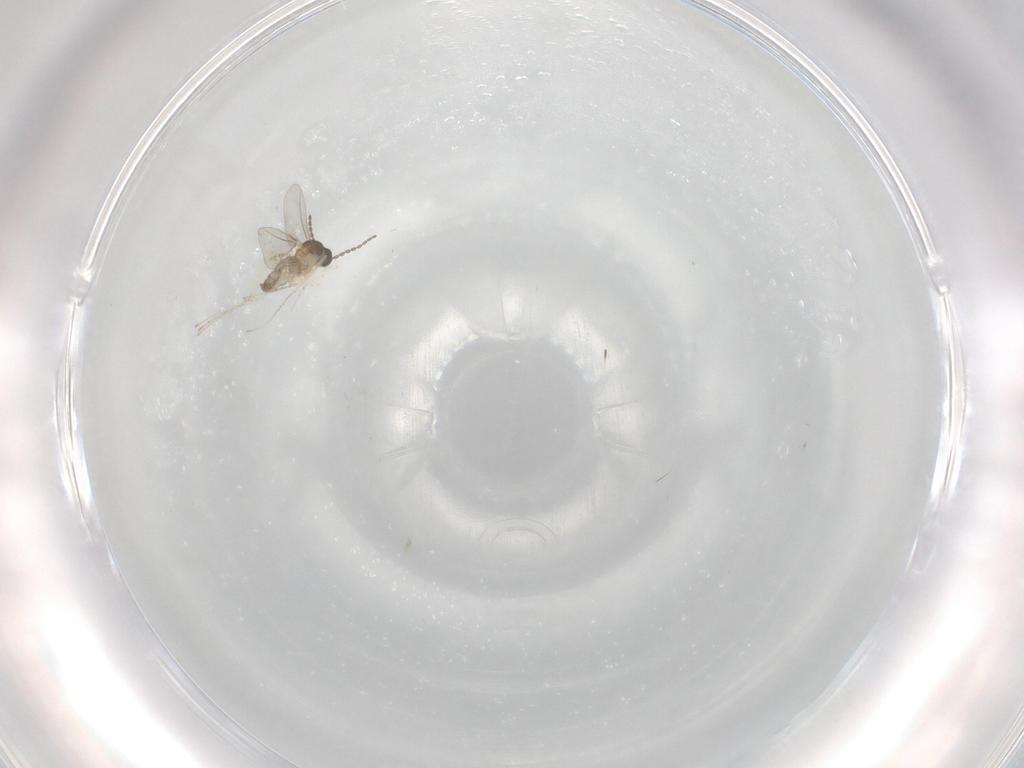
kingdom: Animalia
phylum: Arthropoda
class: Insecta
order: Diptera
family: Cecidomyiidae
